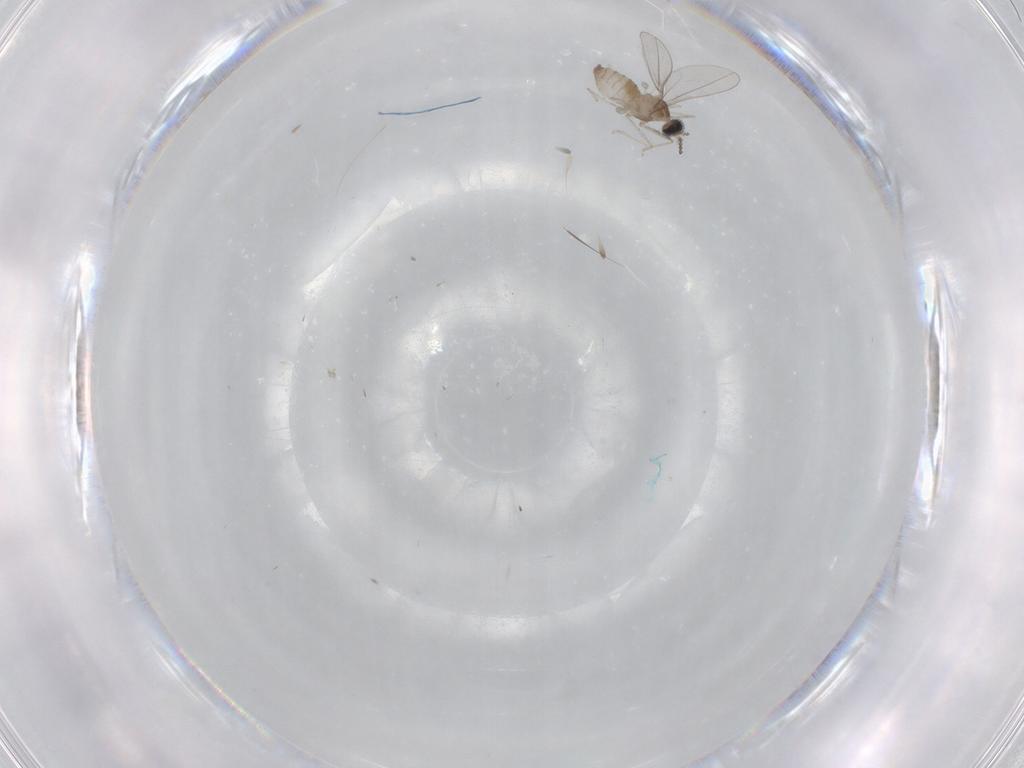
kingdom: Animalia
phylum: Arthropoda
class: Insecta
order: Diptera
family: Cecidomyiidae
